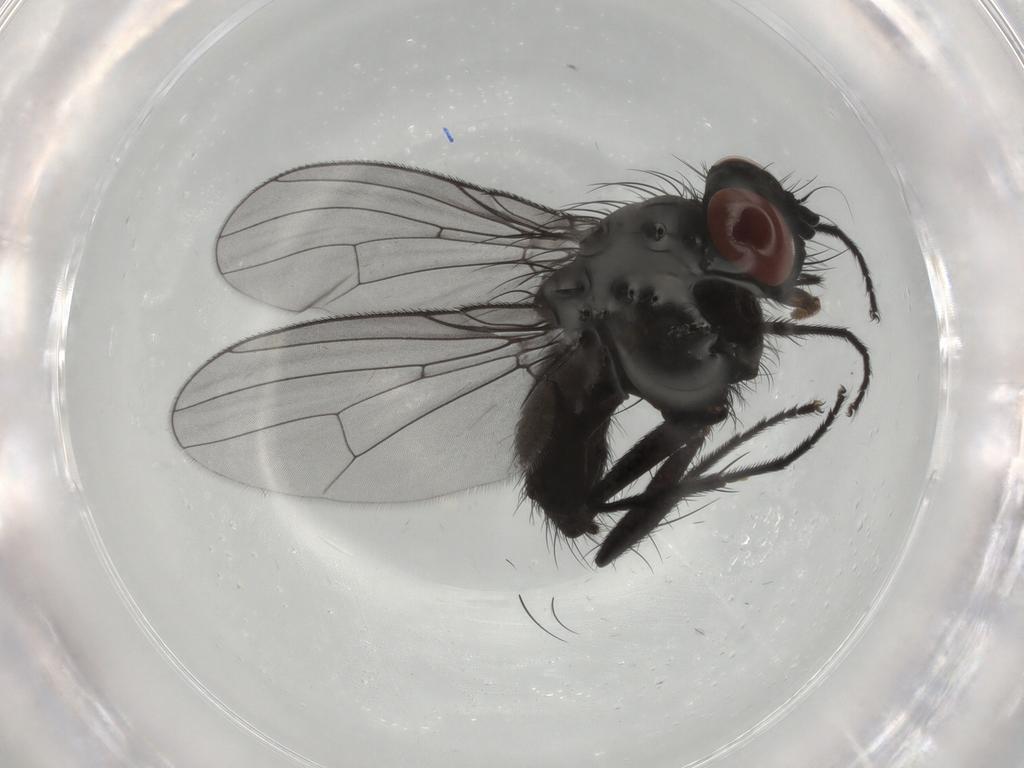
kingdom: Animalia
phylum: Arthropoda
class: Insecta
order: Diptera
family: Muscidae
